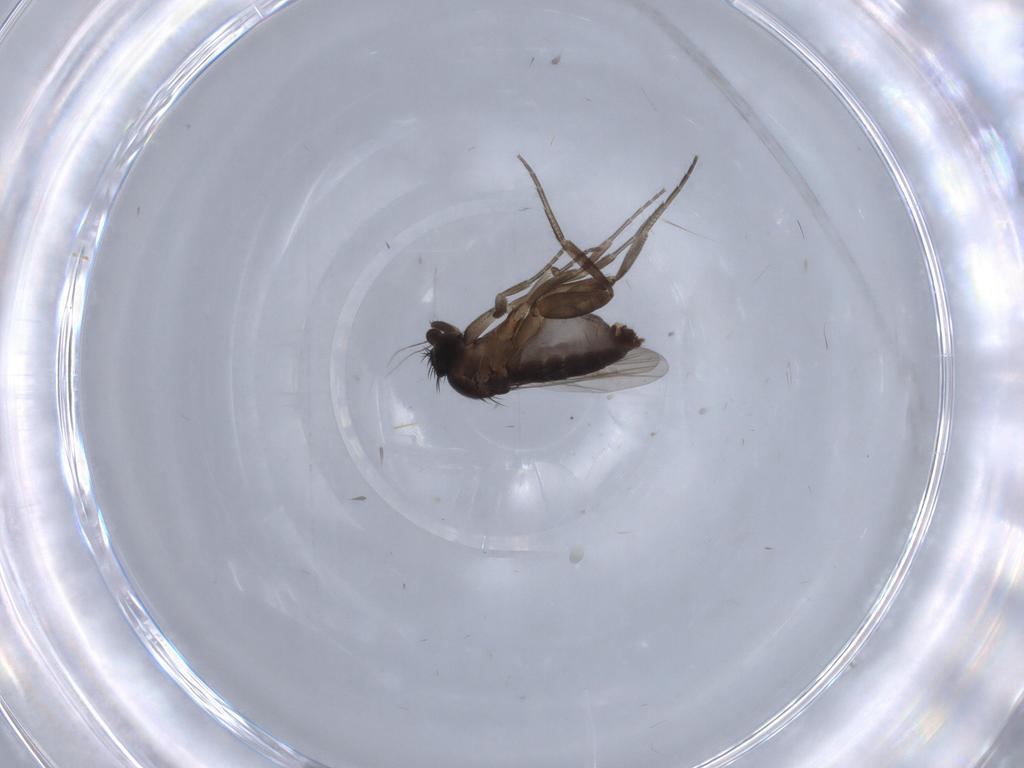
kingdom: Animalia
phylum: Arthropoda
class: Insecta
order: Diptera
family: Phoridae
